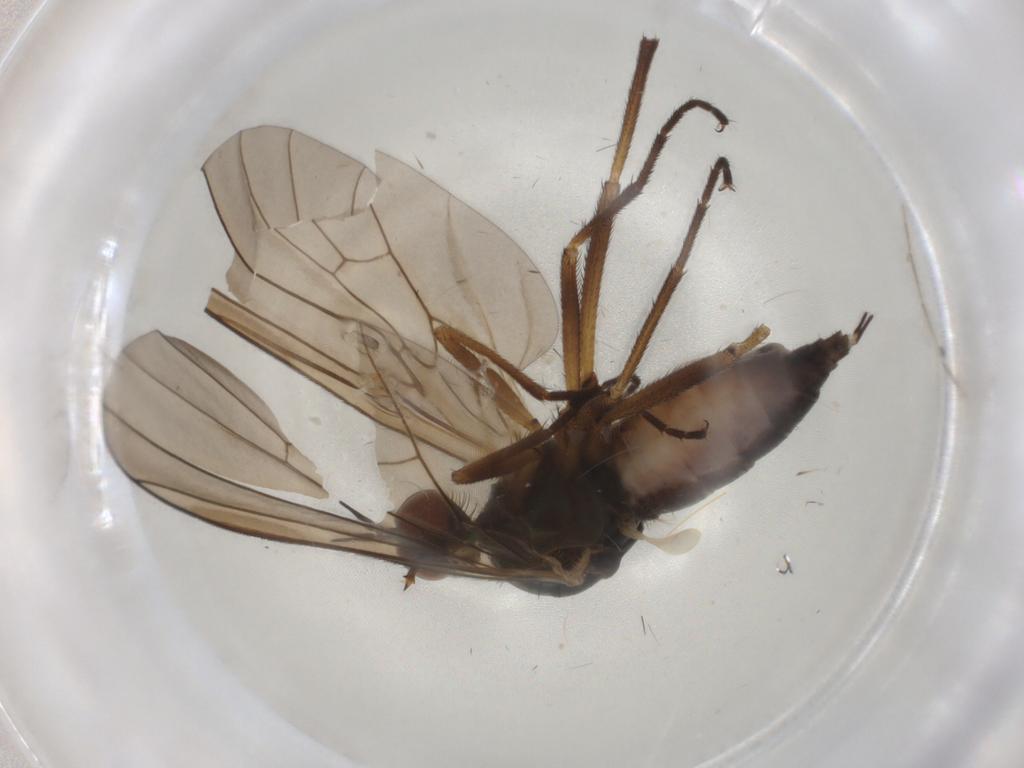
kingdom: Animalia
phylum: Arthropoda
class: Insecta
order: Diptera
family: Empididae
